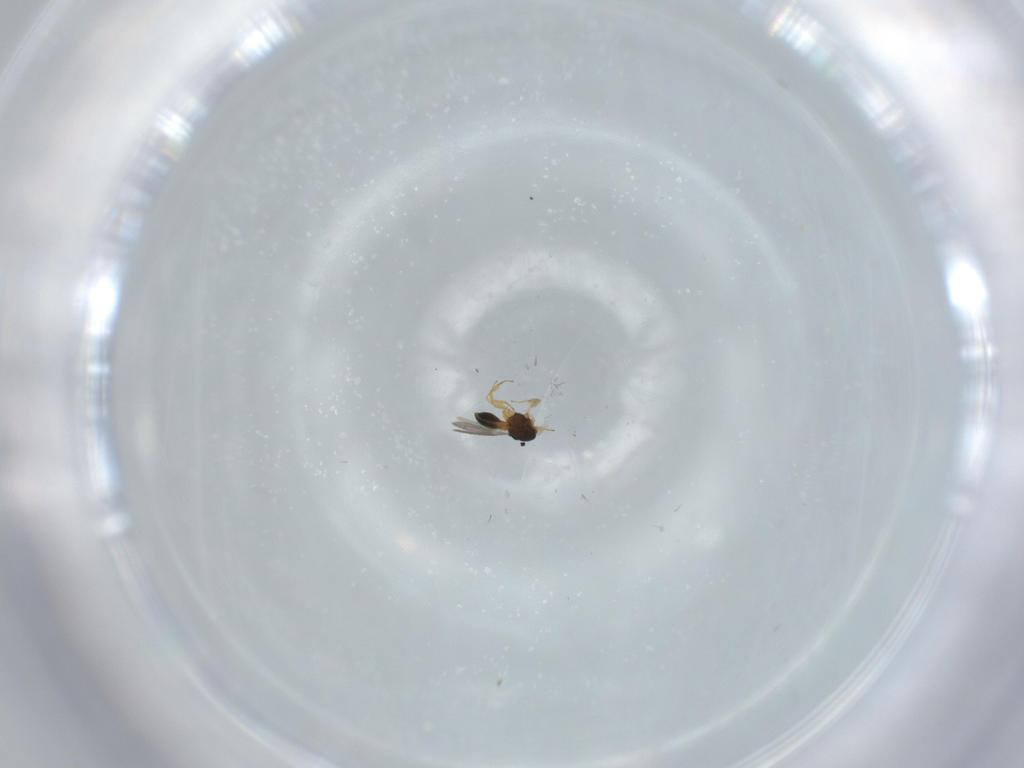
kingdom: Animalia
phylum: Arthropoda
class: Insecta
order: Hymenoptera
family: Scelionidae
